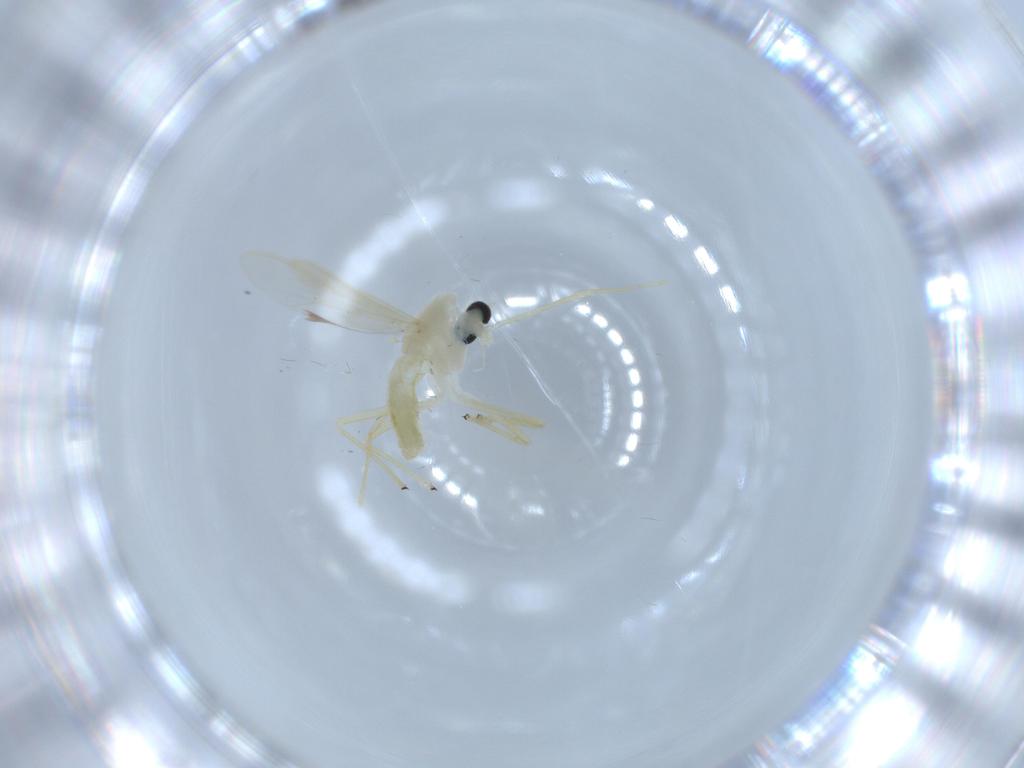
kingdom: Animalia
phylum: Arthropoda
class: Insecta
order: Diptera
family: Chironomidae
